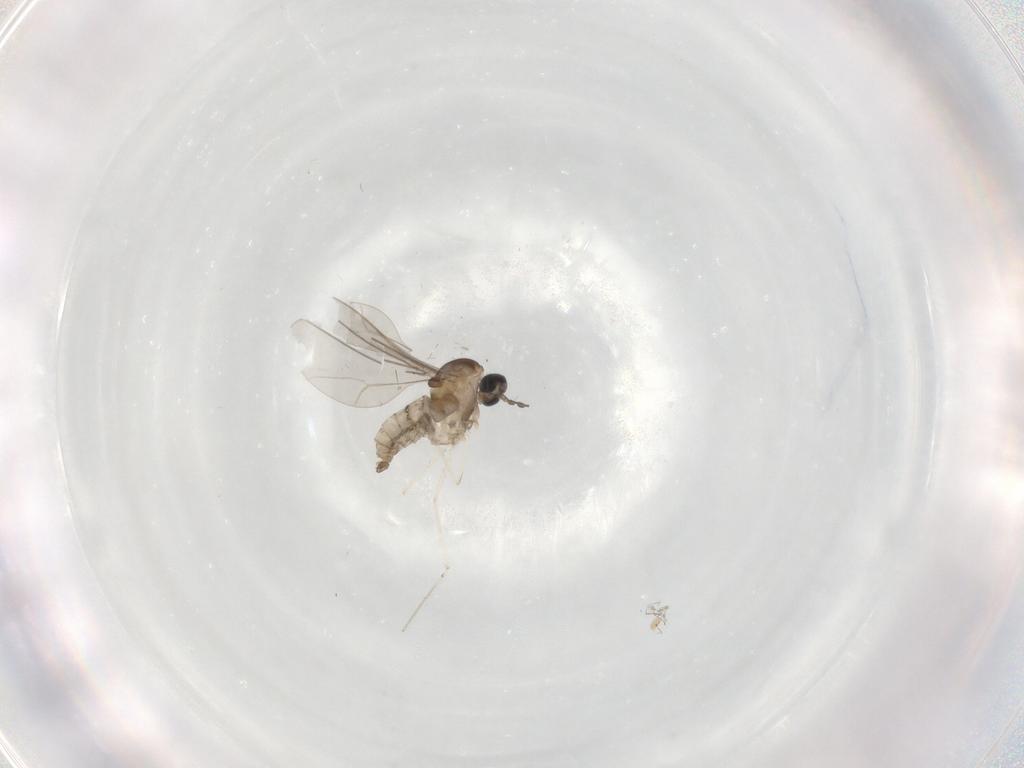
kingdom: Animalia
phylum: Arthropoda
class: Insecta
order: Diptera
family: Cecidomyiidae
